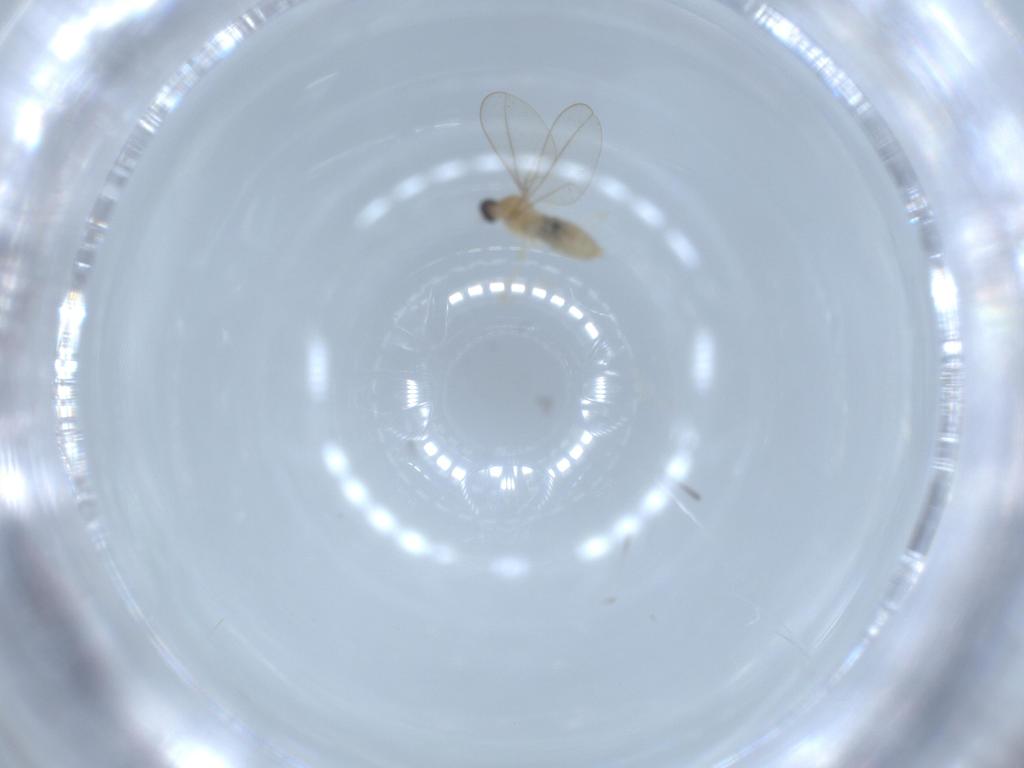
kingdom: Animalia
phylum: Arthropoda
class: Insecta
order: Diptera
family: Cecidomyiidae
